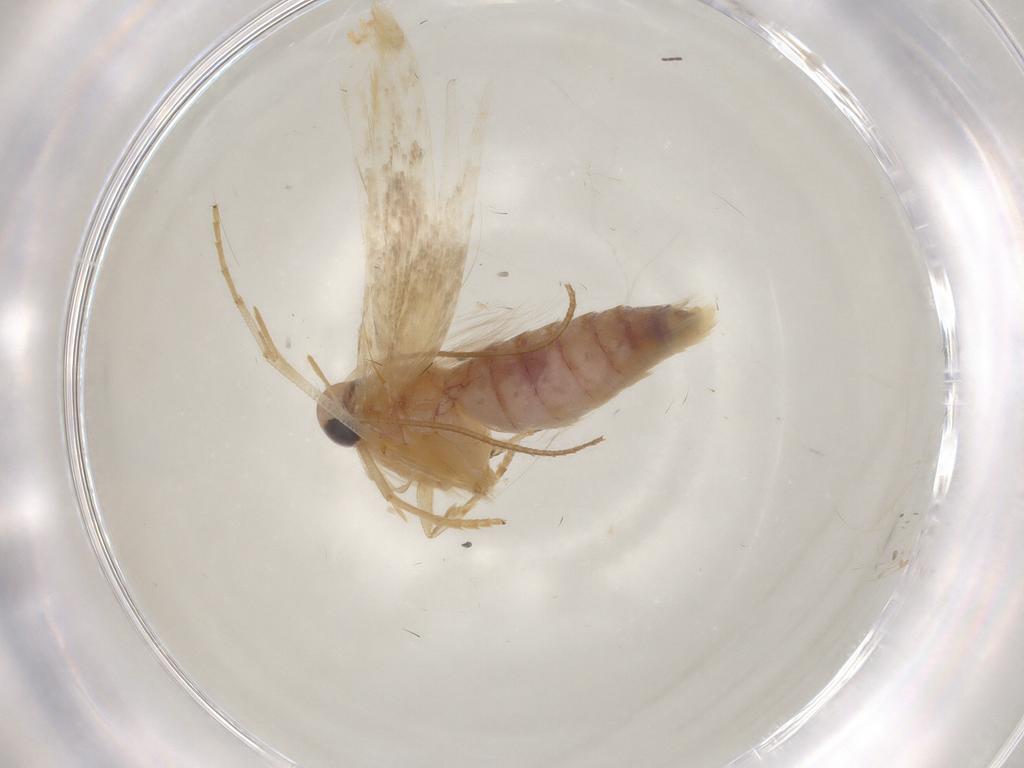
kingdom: Animalia
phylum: Arthropoda
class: Insecta
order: Lepidoptera
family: Erebidae
